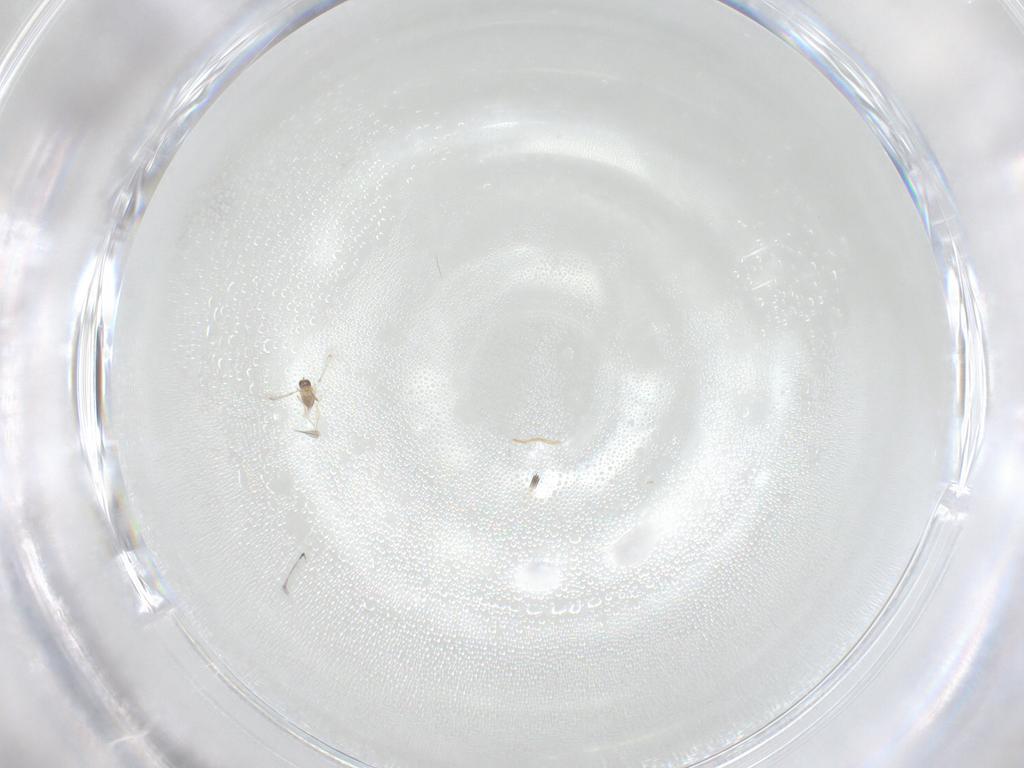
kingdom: Animalia
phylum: Arthropoda
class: Insecta
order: Hymenoptera
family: Mymaridae
